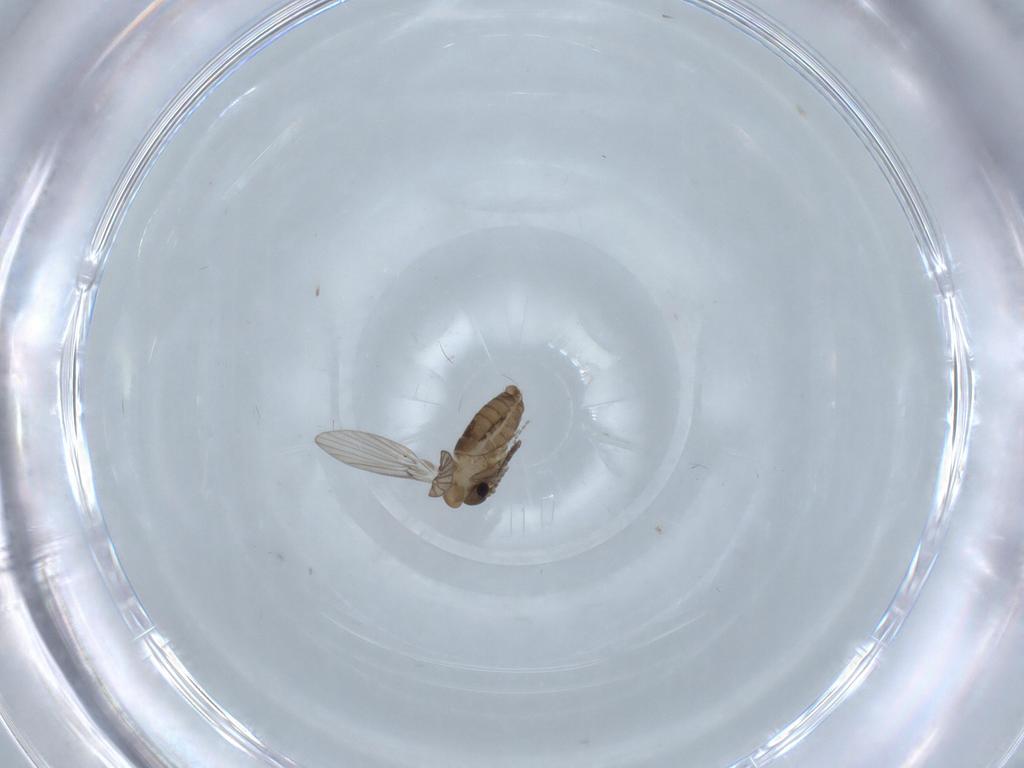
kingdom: Animalia
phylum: Arthropoda
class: Insecta
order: Diptera
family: Psychodidae
